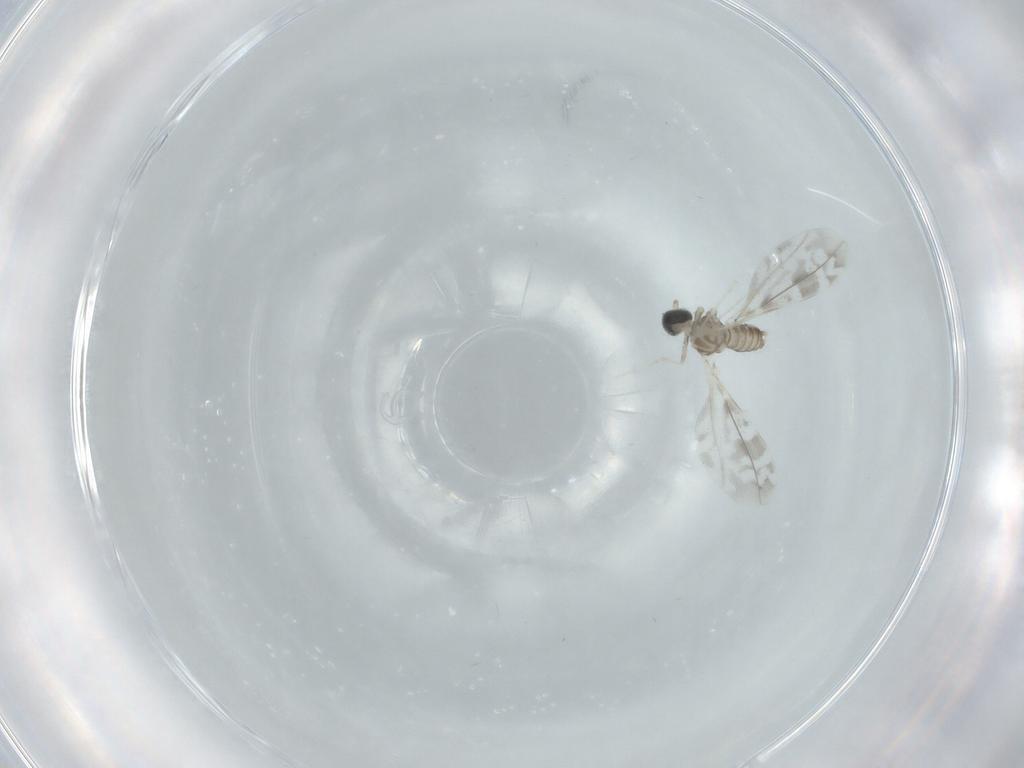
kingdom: Animalia
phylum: Arthropoda
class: Insecta
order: Diptera
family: Cecidomyiidae
